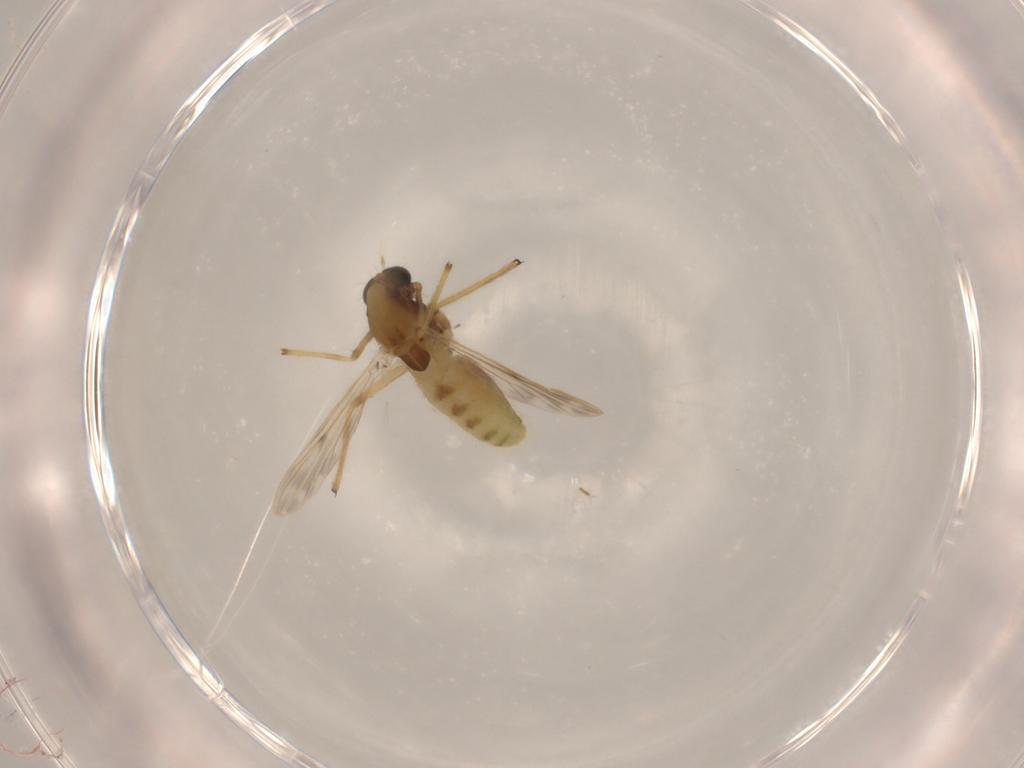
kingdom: Animalia
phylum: Arthropoda
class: Insecta
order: Diptera
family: Chironomidae
